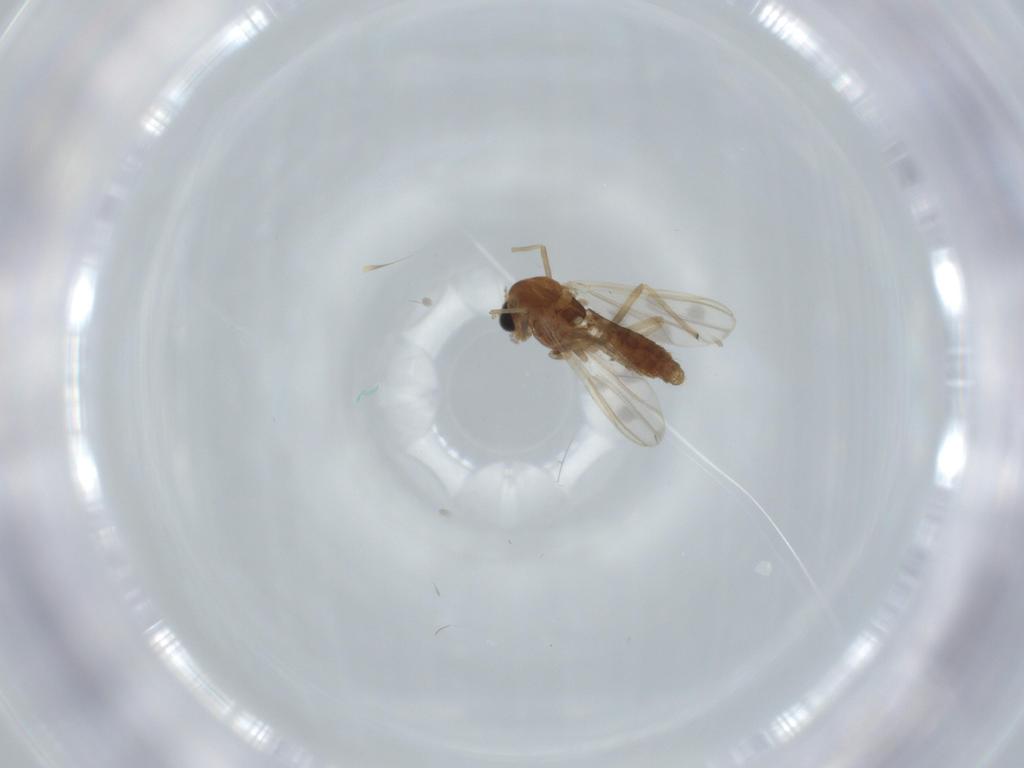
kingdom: Animalia
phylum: Arthropoda
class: Insecta
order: Diptera
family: Chironomidae
